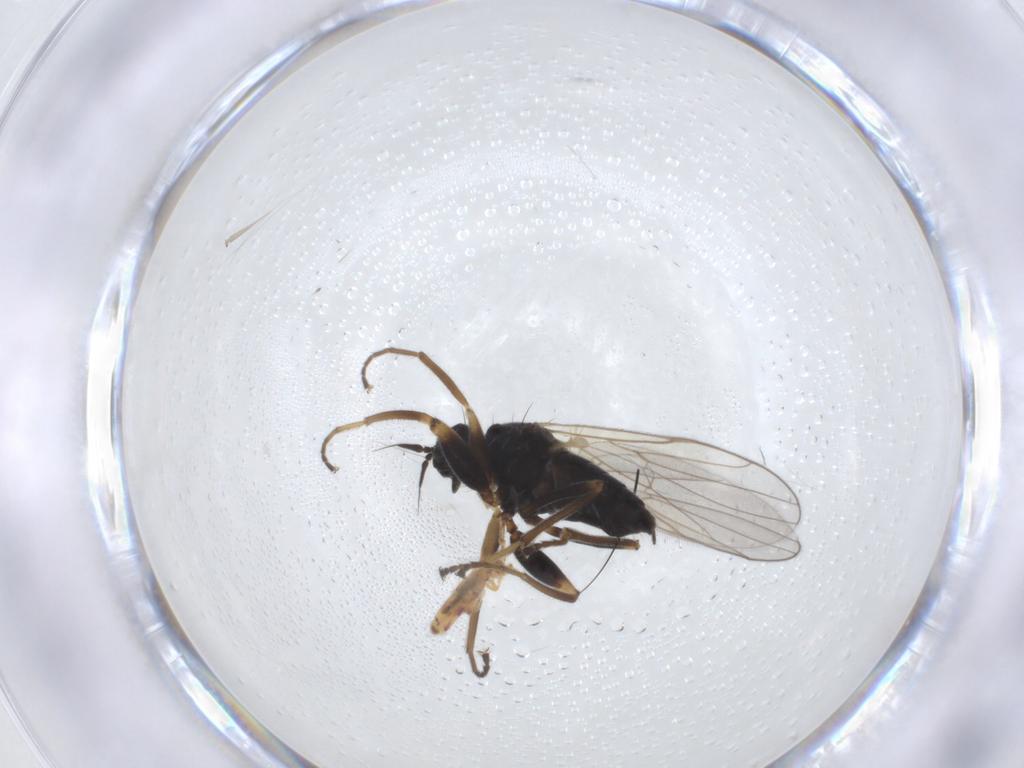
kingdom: Animalia
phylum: Arthropoda
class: Insecta
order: Diptera
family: Sciaridae
